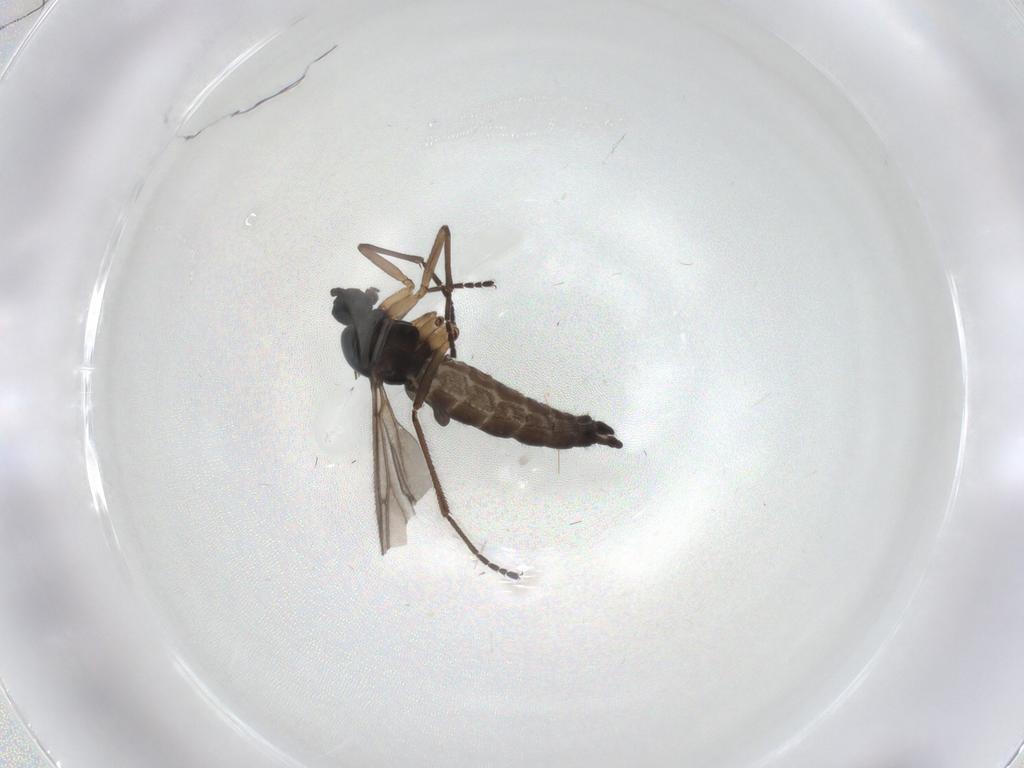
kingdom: Animalia
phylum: Arthropoda
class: Insecta
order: Diptera
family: Sciaridae
